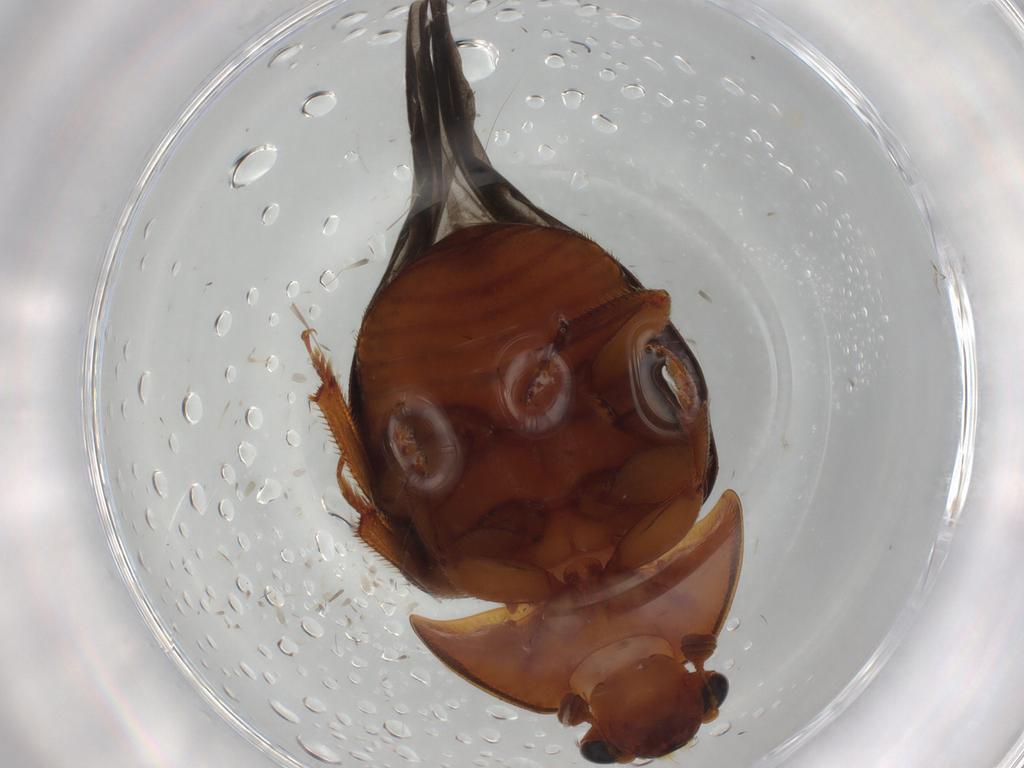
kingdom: Animalia
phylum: Arthropoda
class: Insecta
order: Coleoptera
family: Nitidulidae
